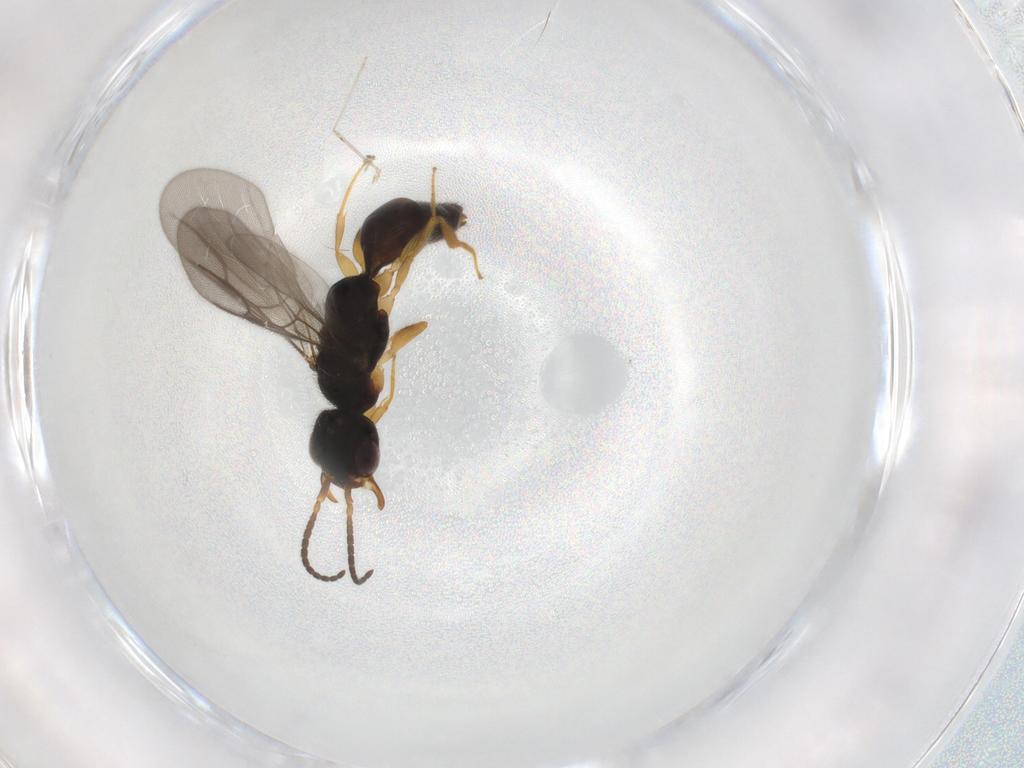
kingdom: Animalia
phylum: Arthropoda
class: Insecta
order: Hymenoptera
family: Bethylidae
